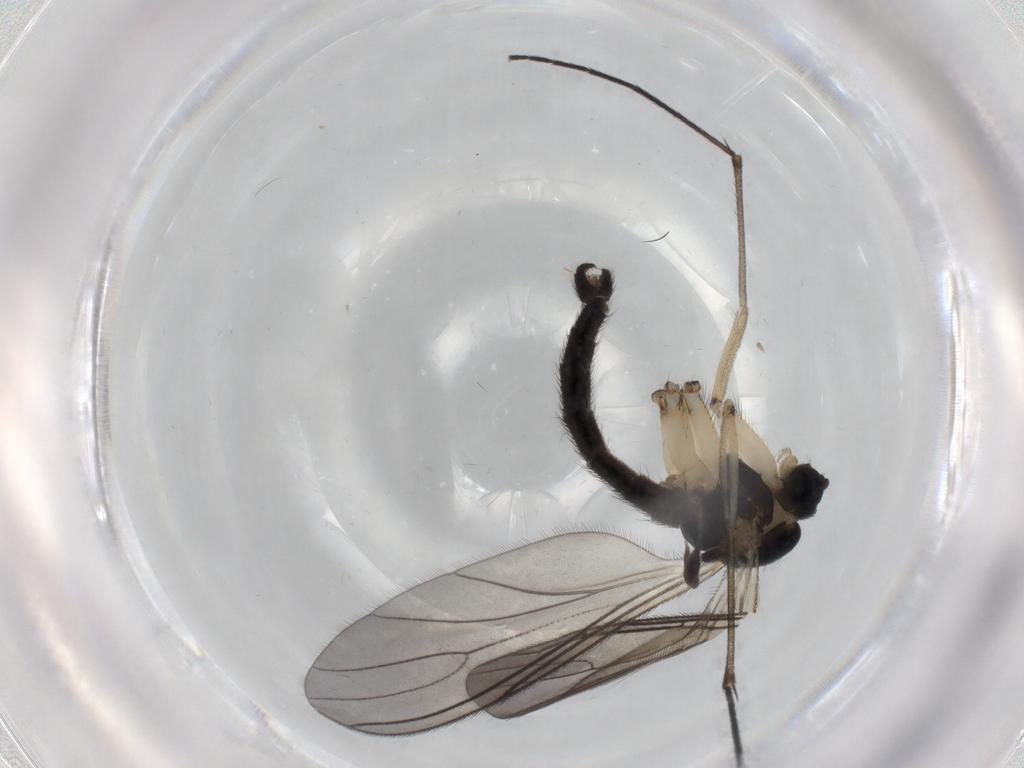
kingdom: Animalia
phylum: Arthropoda
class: Insecta
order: Diptera
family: Sciaridae
